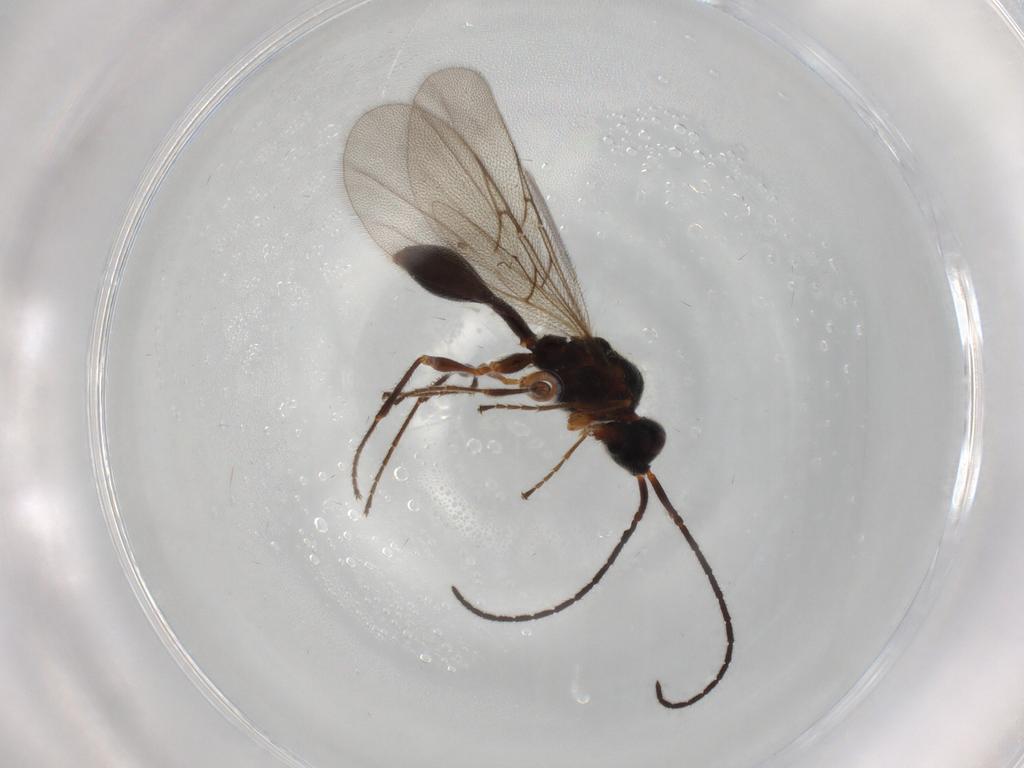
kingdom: Animalia
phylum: Arthropoda
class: Insecta
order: Hymenoptera
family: Diapriidae
